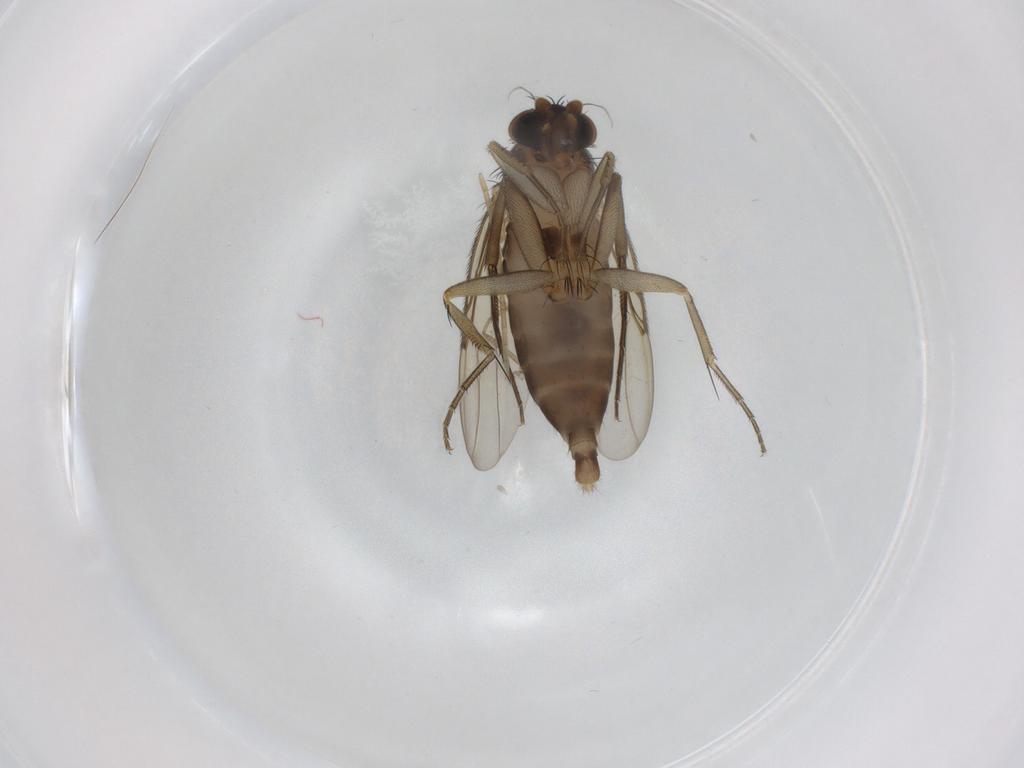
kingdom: Animalia
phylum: Arthropoda
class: Insecta
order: Diptera
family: Phoridae
